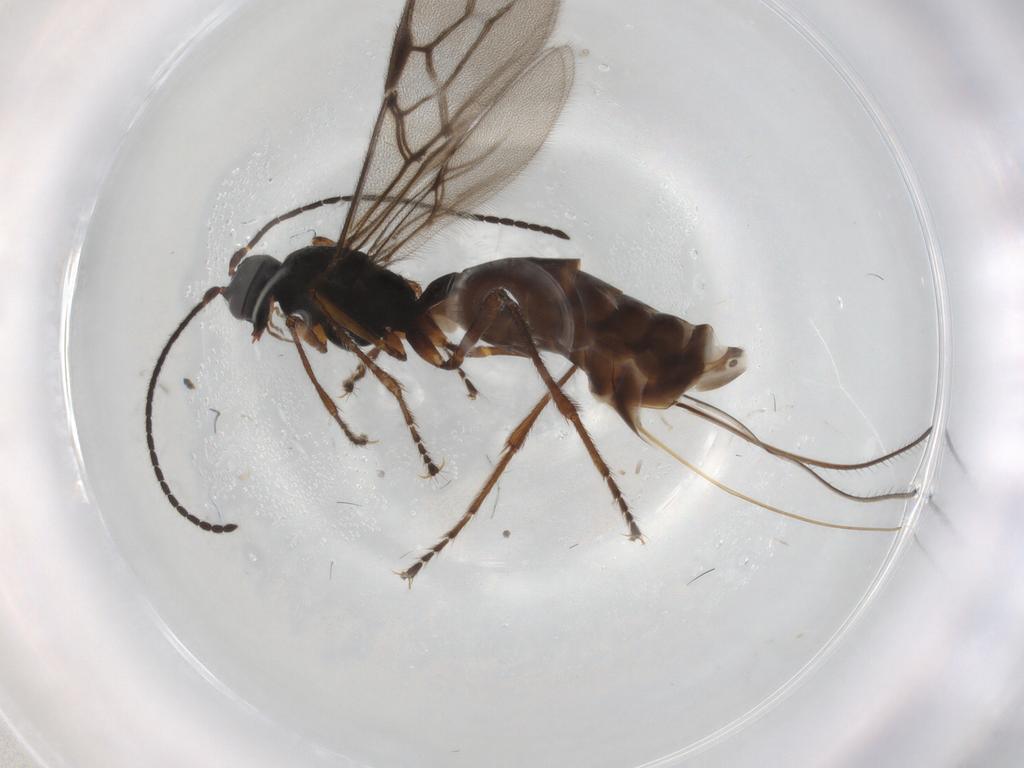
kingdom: Animalia
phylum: Arthropoda
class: Insecta
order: Hymenoptera
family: Braconidae
